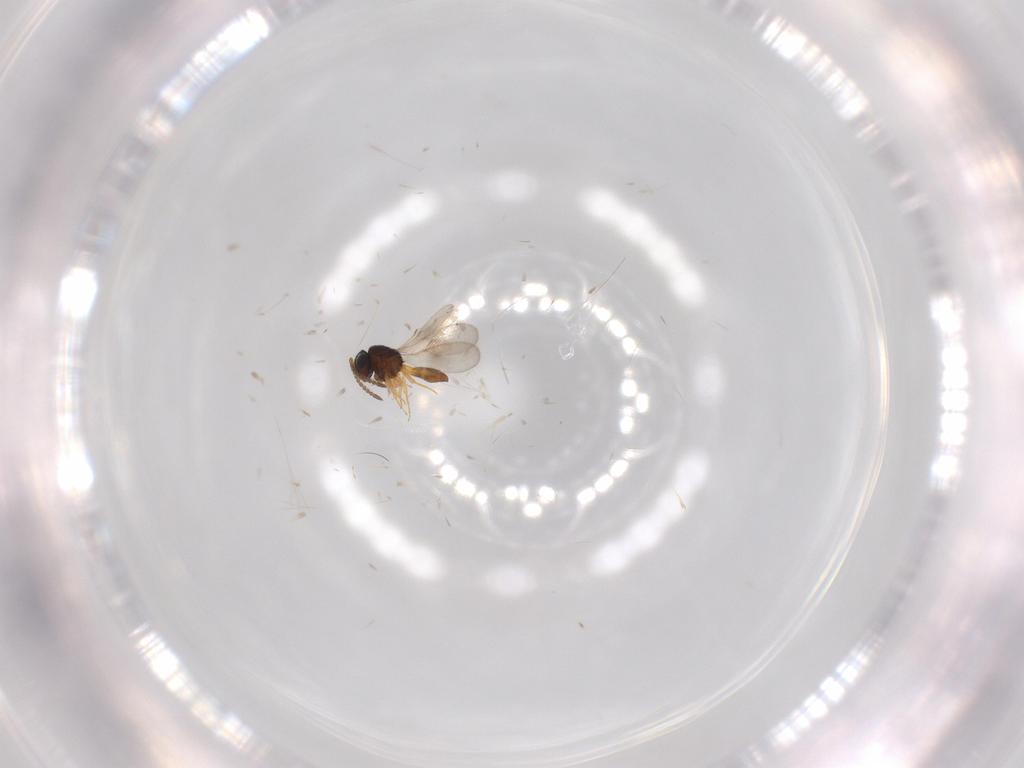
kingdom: Animalia
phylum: Arthropoda
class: Insecta
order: Hymenoptera
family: Scelionidae
